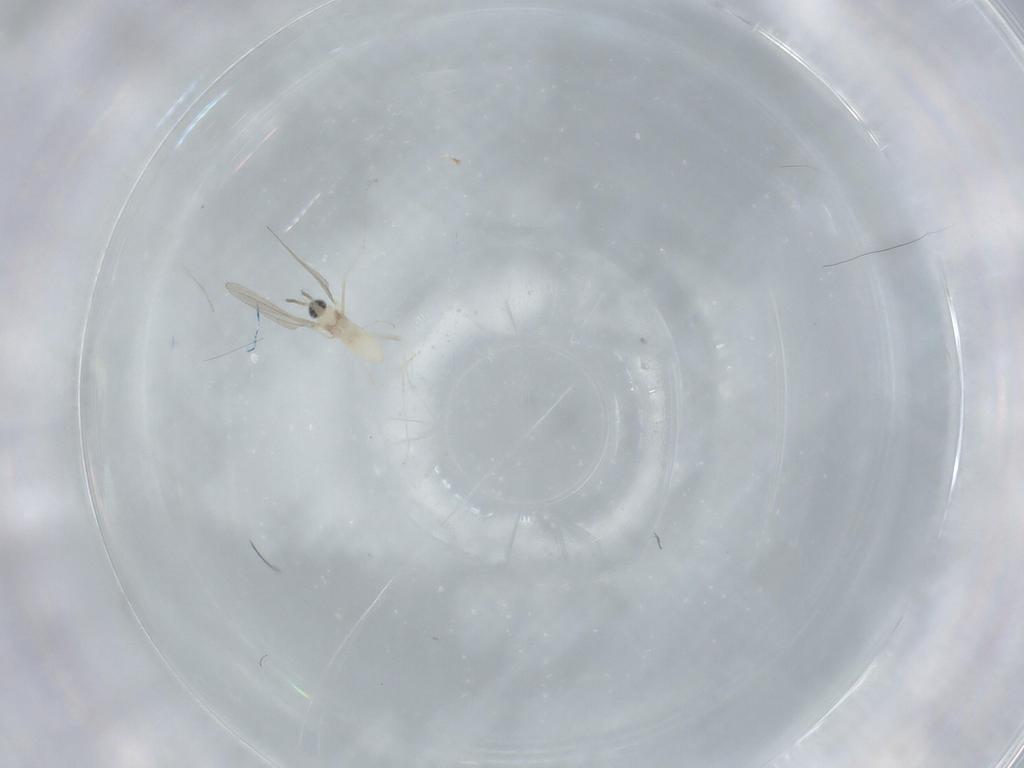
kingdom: Animalia
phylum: Arthropoda
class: Insecta
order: Diptera
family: Cecidomyiidae
